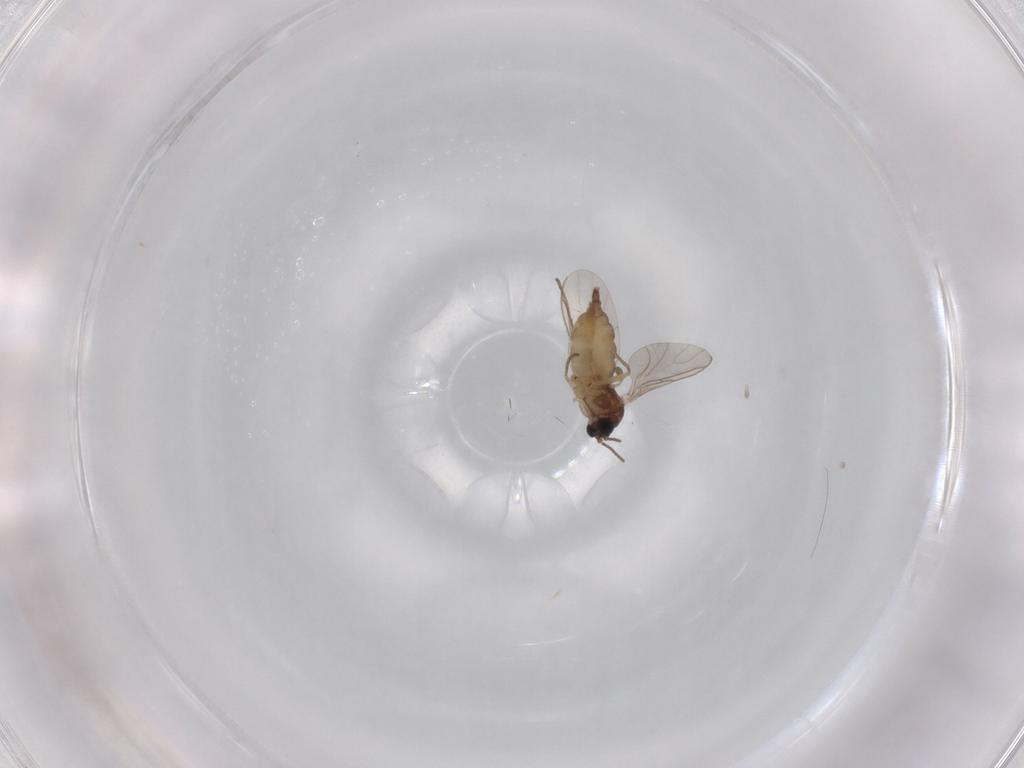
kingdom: Animalia
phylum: Arthropoda
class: Insecta
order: Diptera
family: Sciaridae
